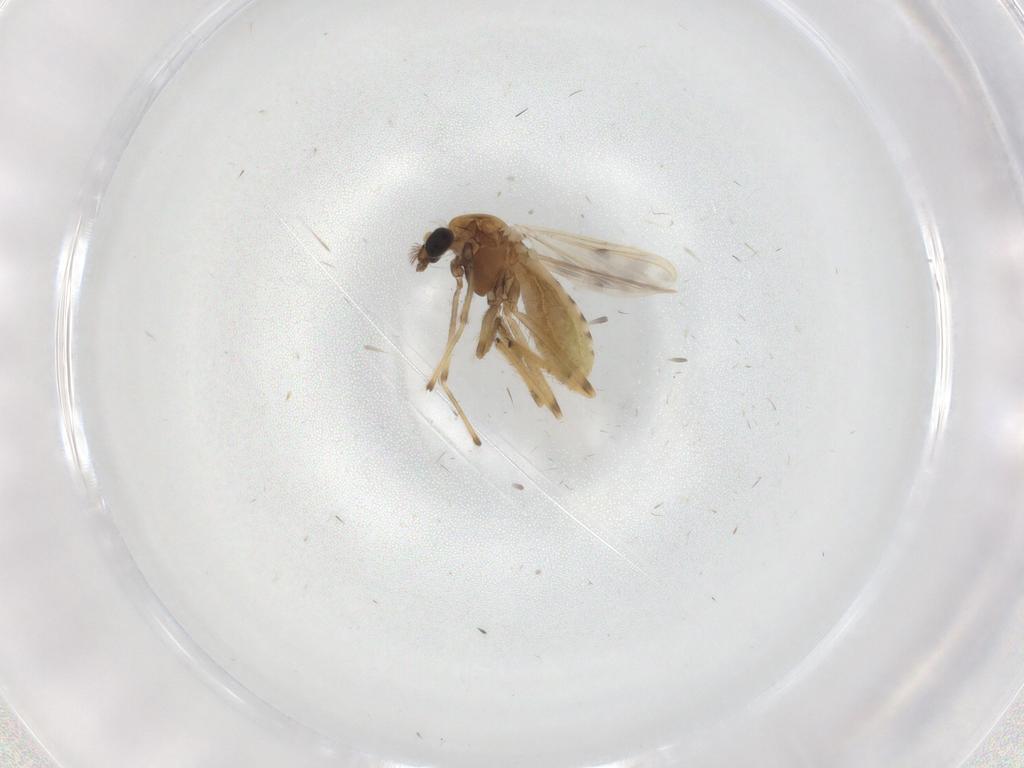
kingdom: Animalia
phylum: Arthropoda
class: Insecta
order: Diptera
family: Chironomidae
